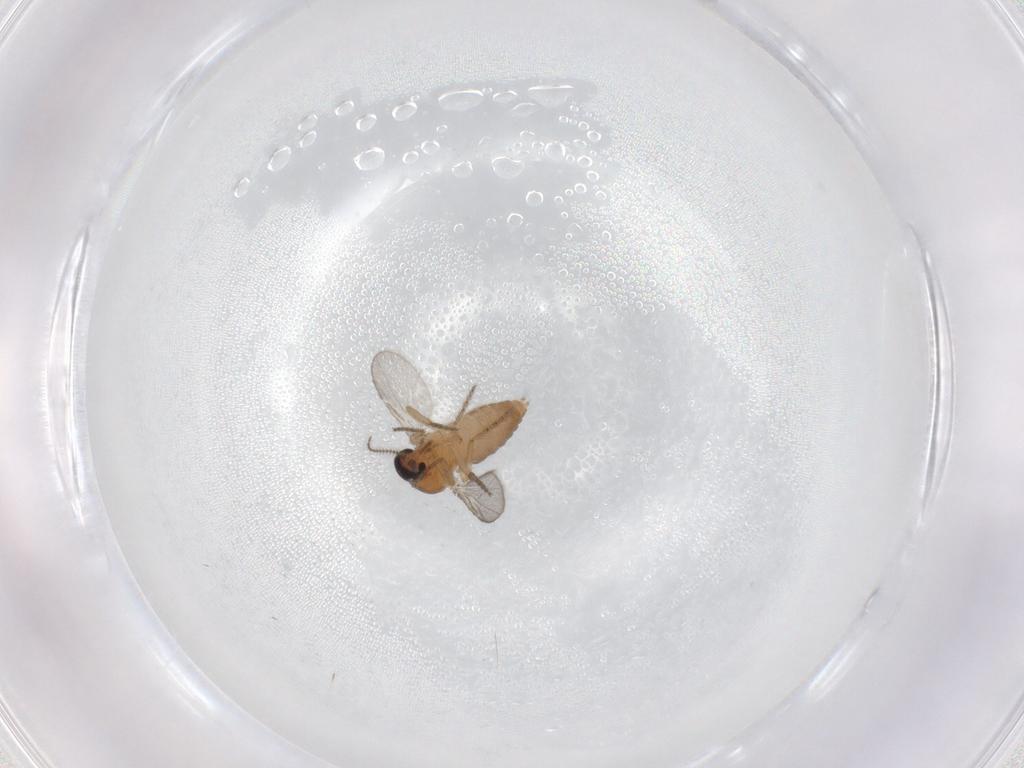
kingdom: Animalia
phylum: Arthropoda
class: Insecta
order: Diptera
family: Ceratopogonidae
